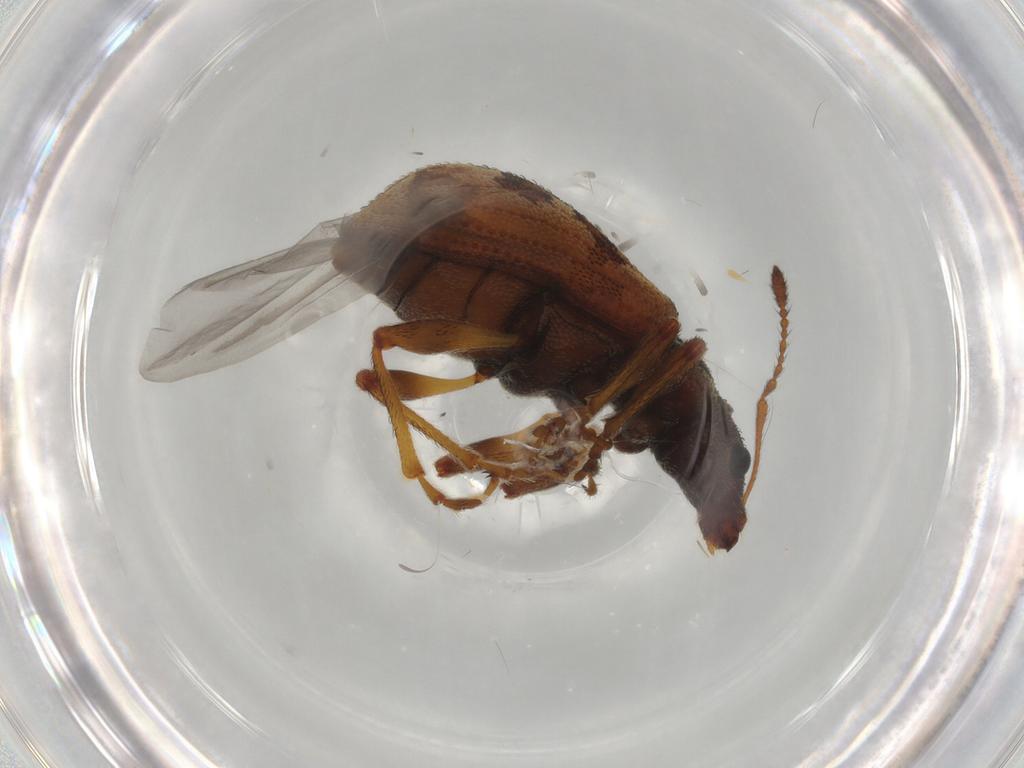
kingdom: Animalia
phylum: Arthropoda
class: Insecta
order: Coleoptera
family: Curculionidae
